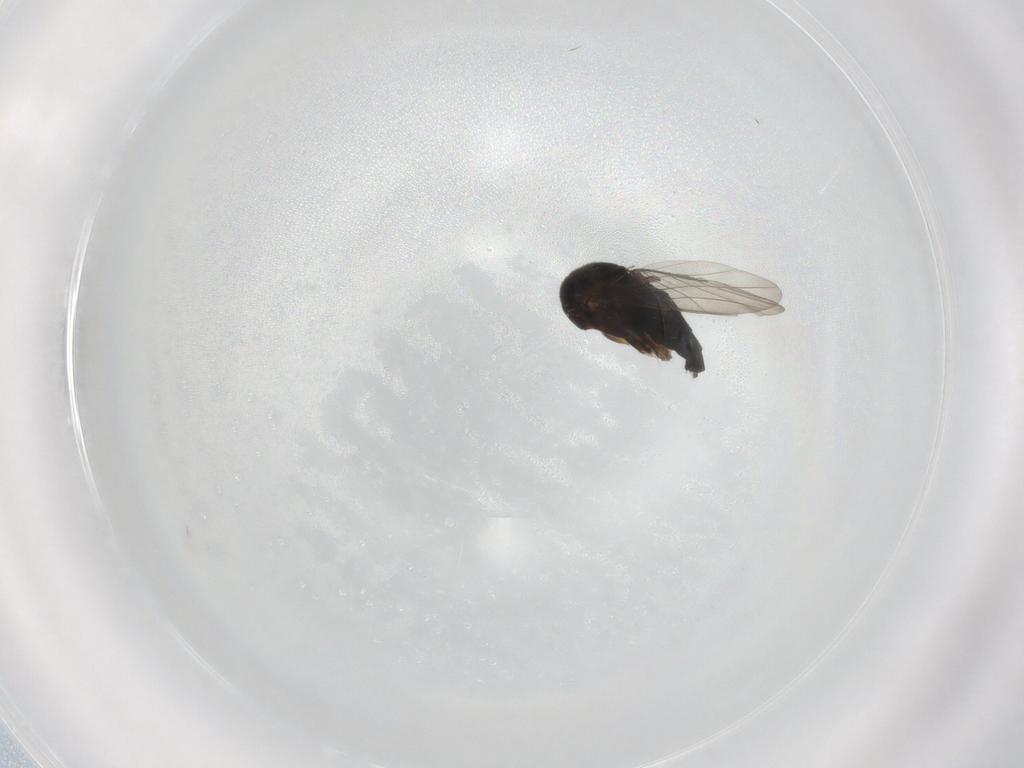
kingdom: Animalia
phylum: Arthropoda
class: Insecta
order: Diptera
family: Phoridae
